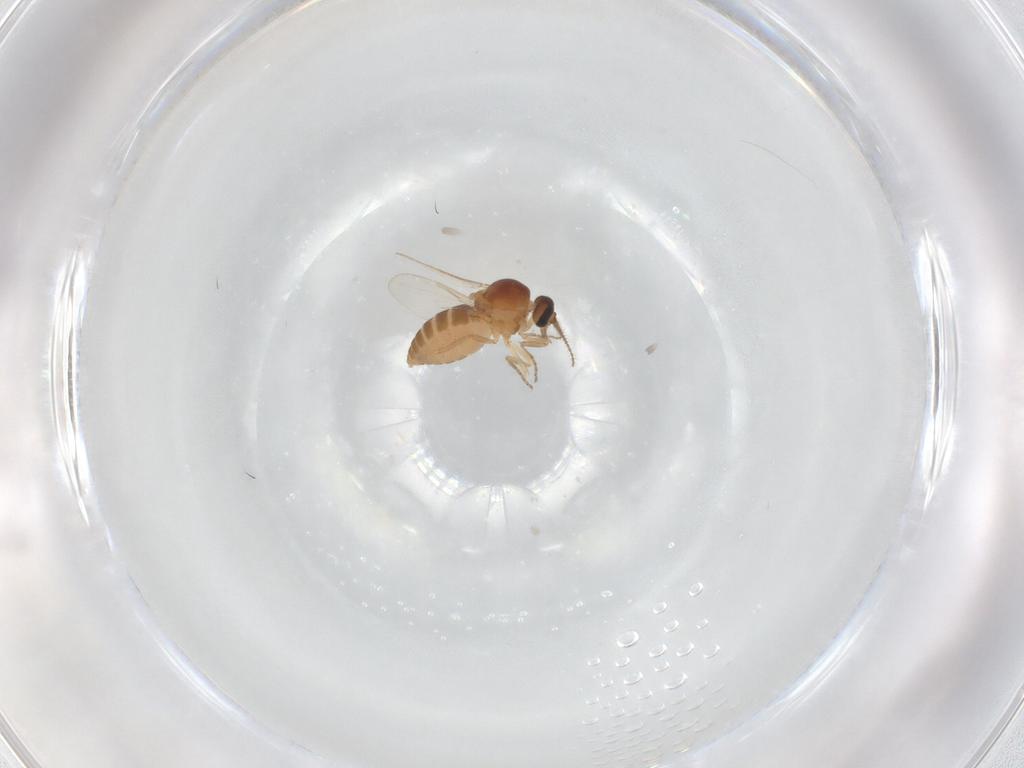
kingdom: Animalia
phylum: Arthropoda
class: Insecta
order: Diptera
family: Ceratopogonidae
